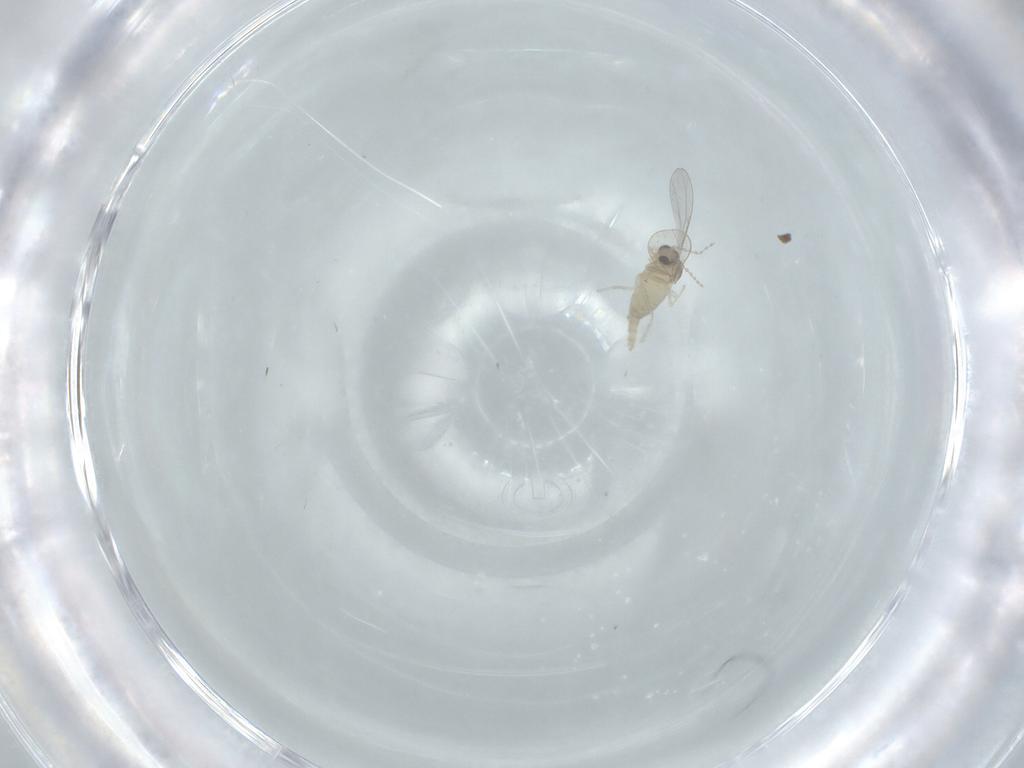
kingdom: Animalia
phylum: Arthropoda
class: Insecta
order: Diptera
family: Cecidomyiidae
